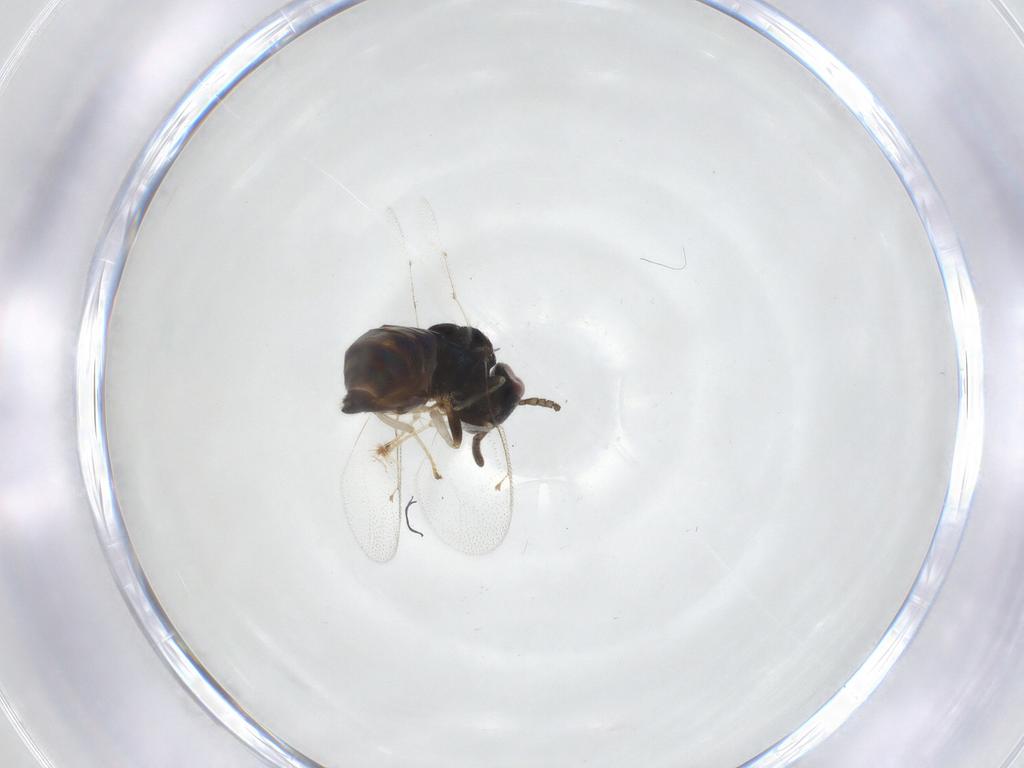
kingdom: Animalia
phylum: Arthropoda
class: Insecta
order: Hymenoptera
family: Pteromalidae
